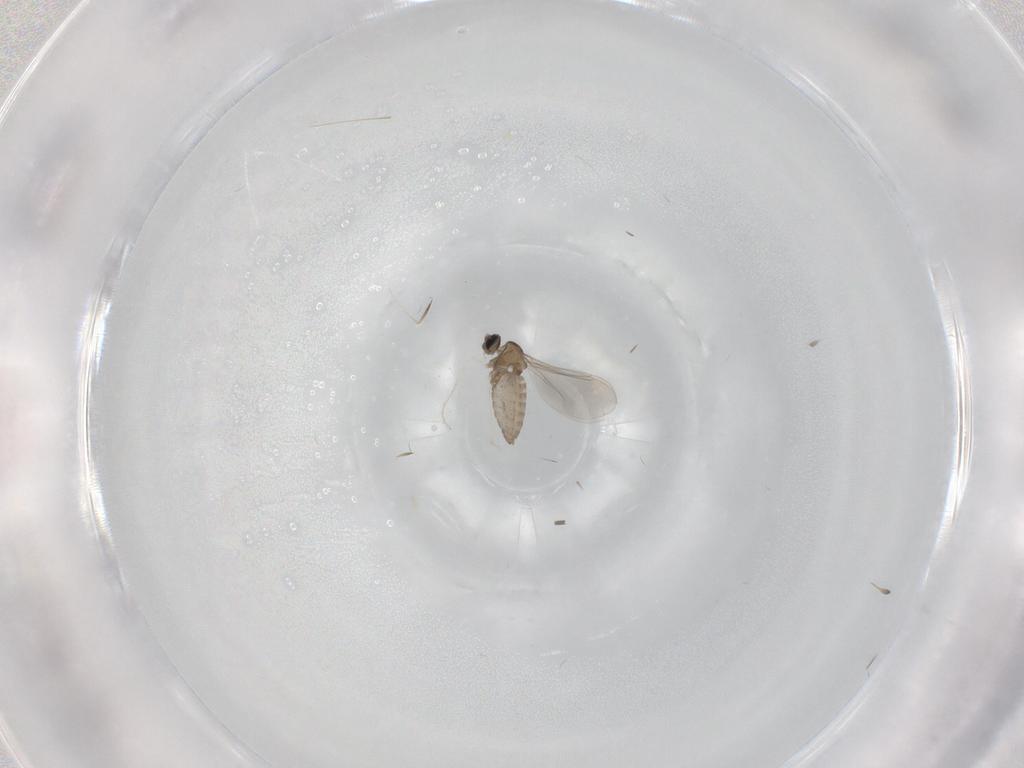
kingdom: Animalia
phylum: Arthropoda
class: Insecta
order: Diptera
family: Cecidomyiidae
